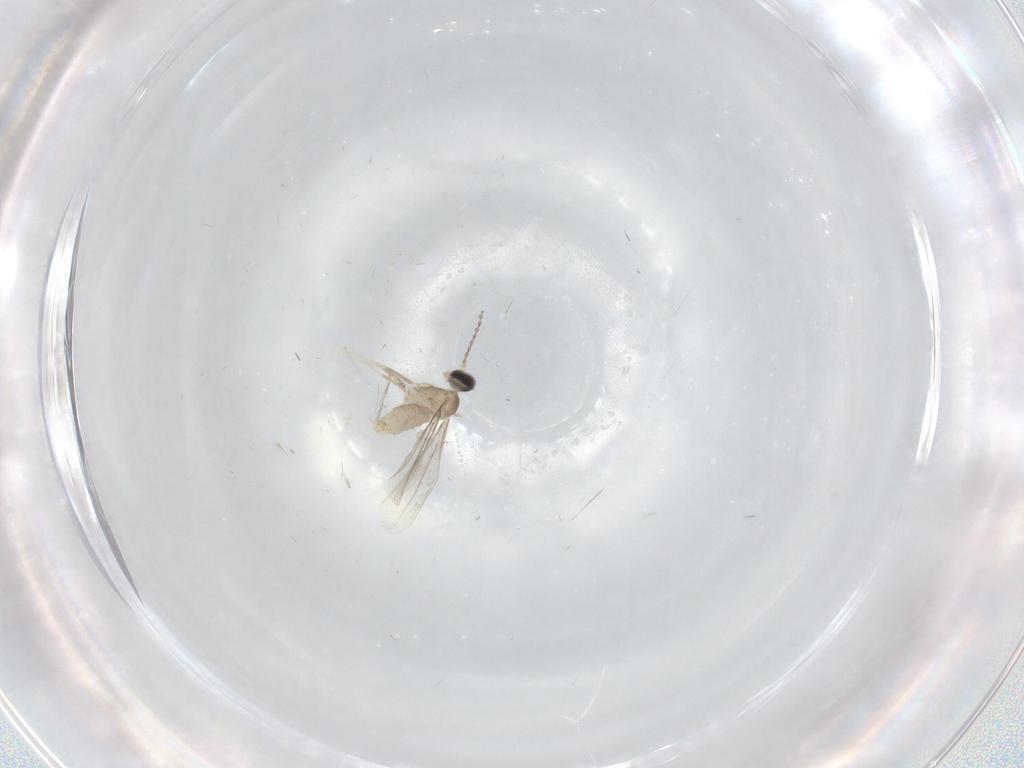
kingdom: Animalia
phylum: Arthropoda
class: Insecta
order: Diptera
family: Cecidomyiidae
